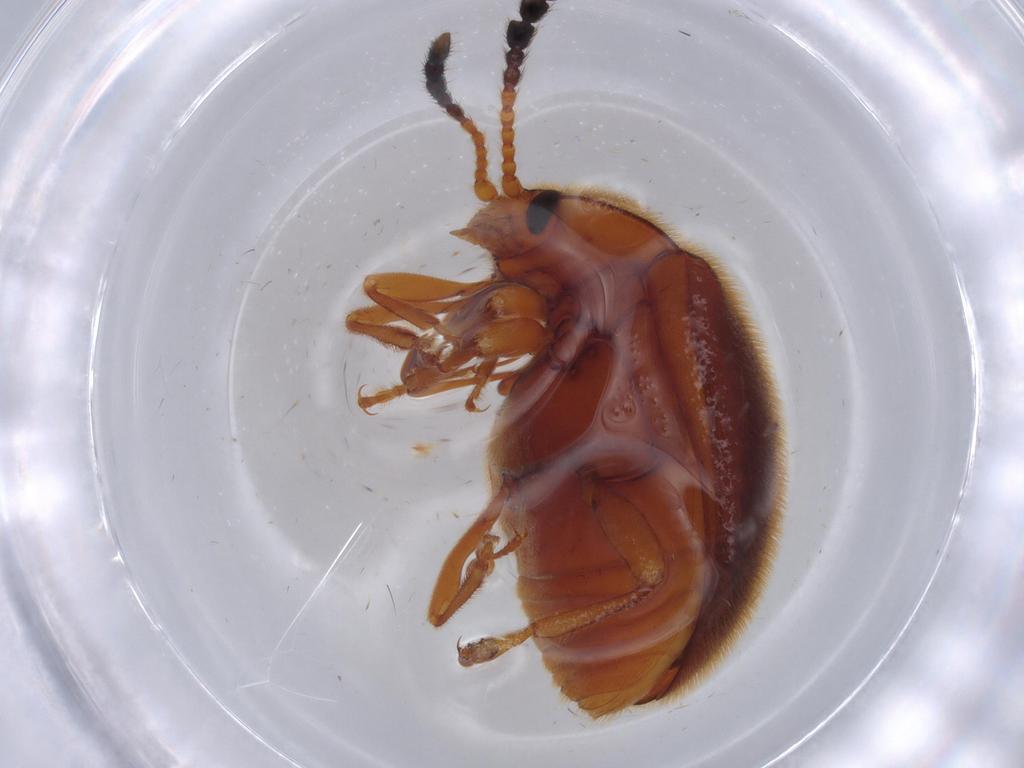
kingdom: Animalia
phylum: Arthropoda
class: Insecta
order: Coleoptera
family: Endomychidae
